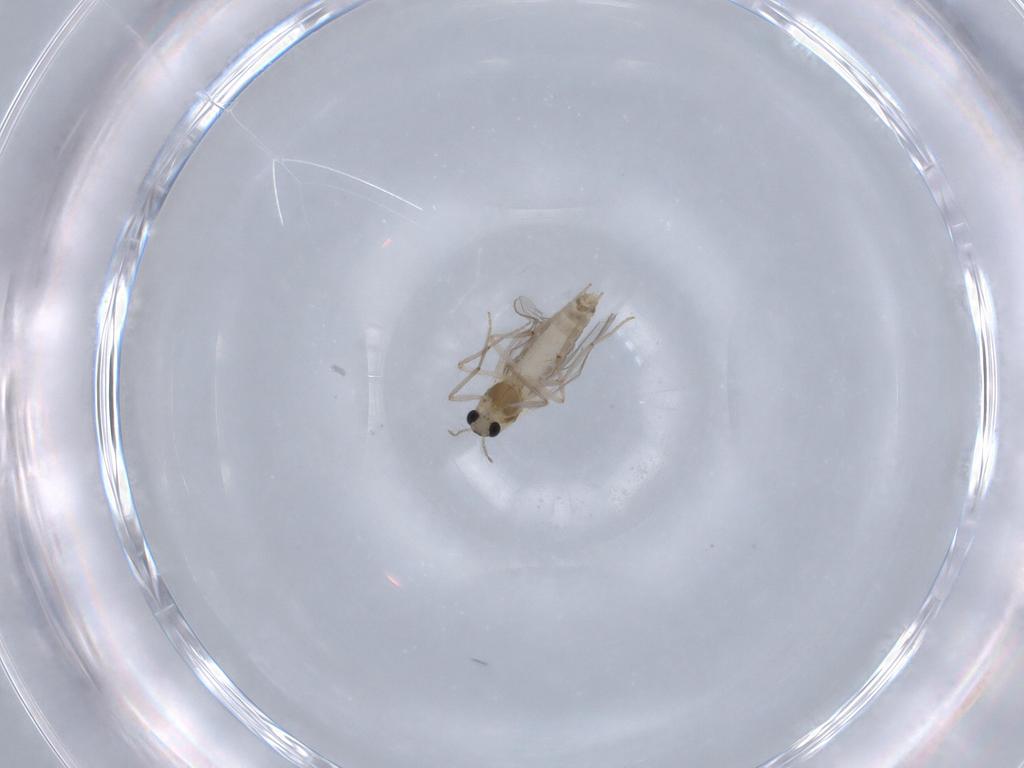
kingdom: Animalia
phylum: Arthropoda
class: Insecta
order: Diptera
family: Chironomidae
